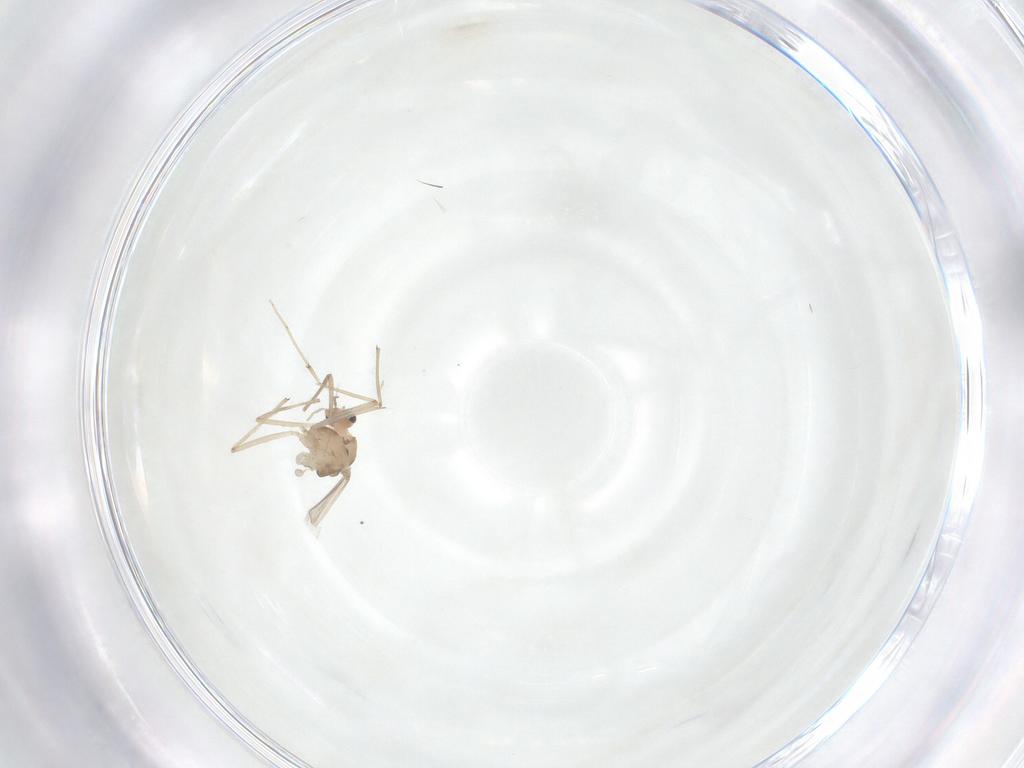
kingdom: Animalia
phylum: Arthropoda
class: Insecta
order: Diptera
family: Chironomidae
